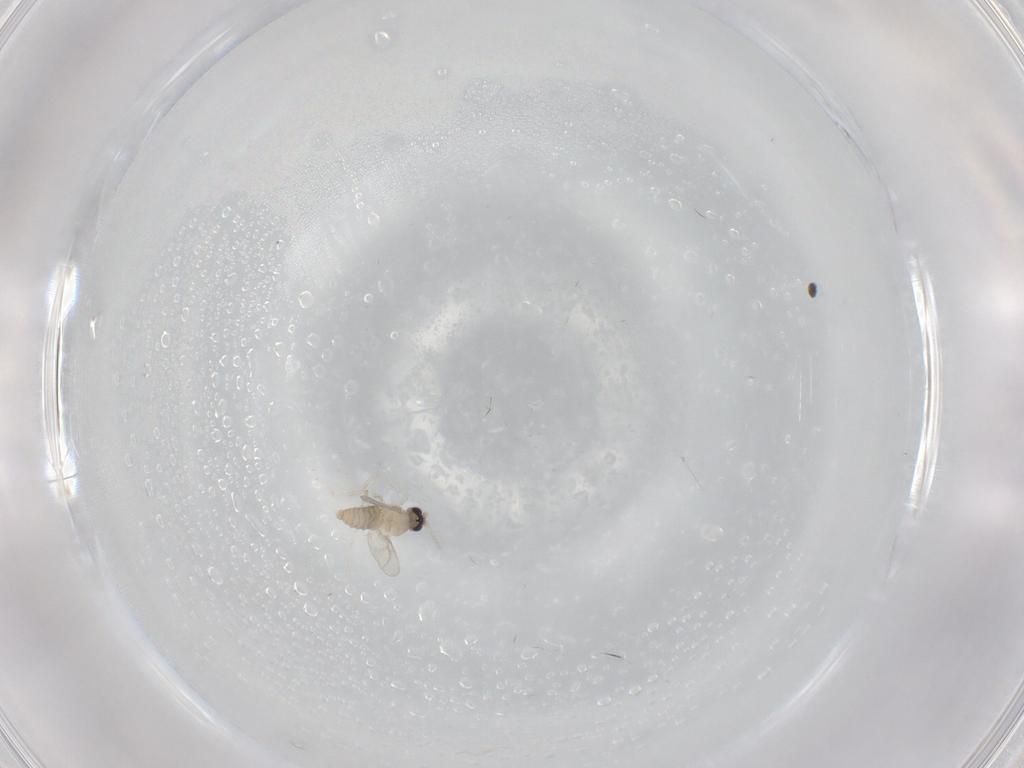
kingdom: Animalia
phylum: Arthropoda
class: Insecta
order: Diptera
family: Cecidomyiidae
